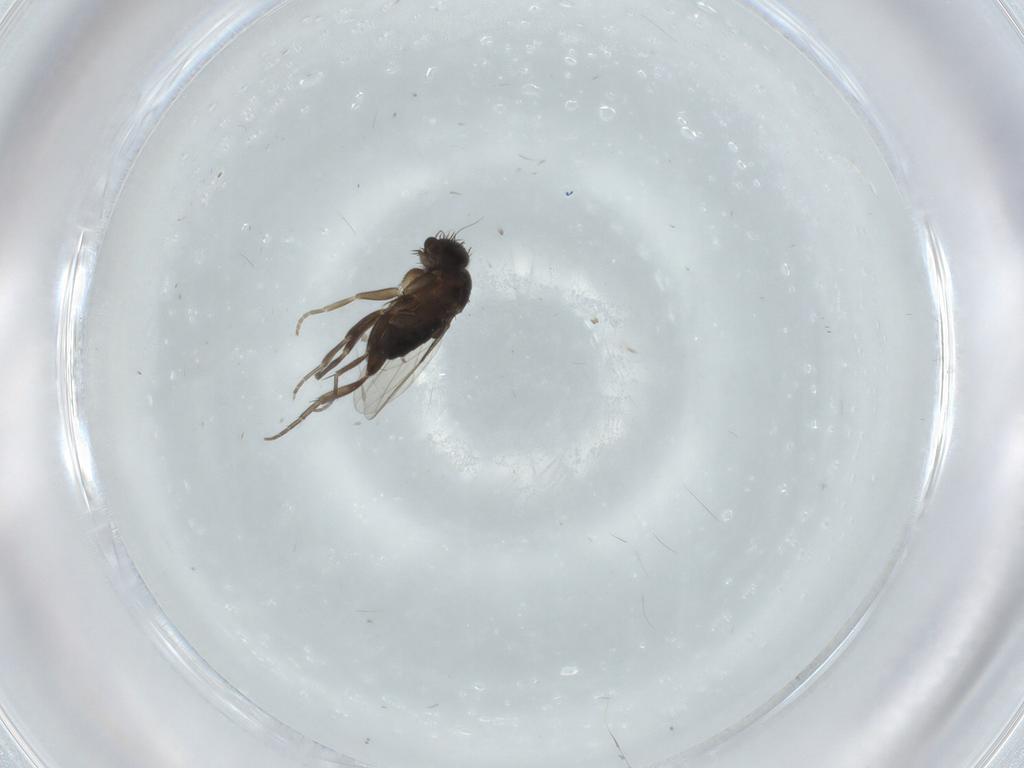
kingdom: Animalia
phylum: Arthropoda
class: Insecta
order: Diptera
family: Phoridae
